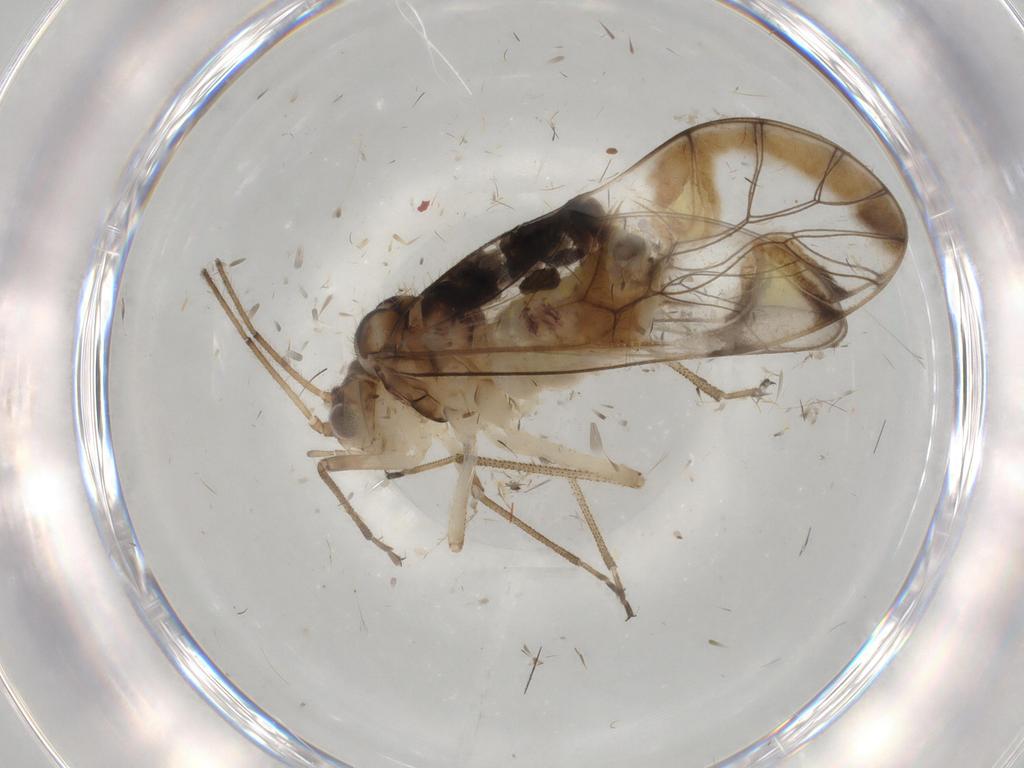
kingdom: Animalia
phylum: Arthropoda
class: Insecta
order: Psocodea
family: Amphipsocidae
